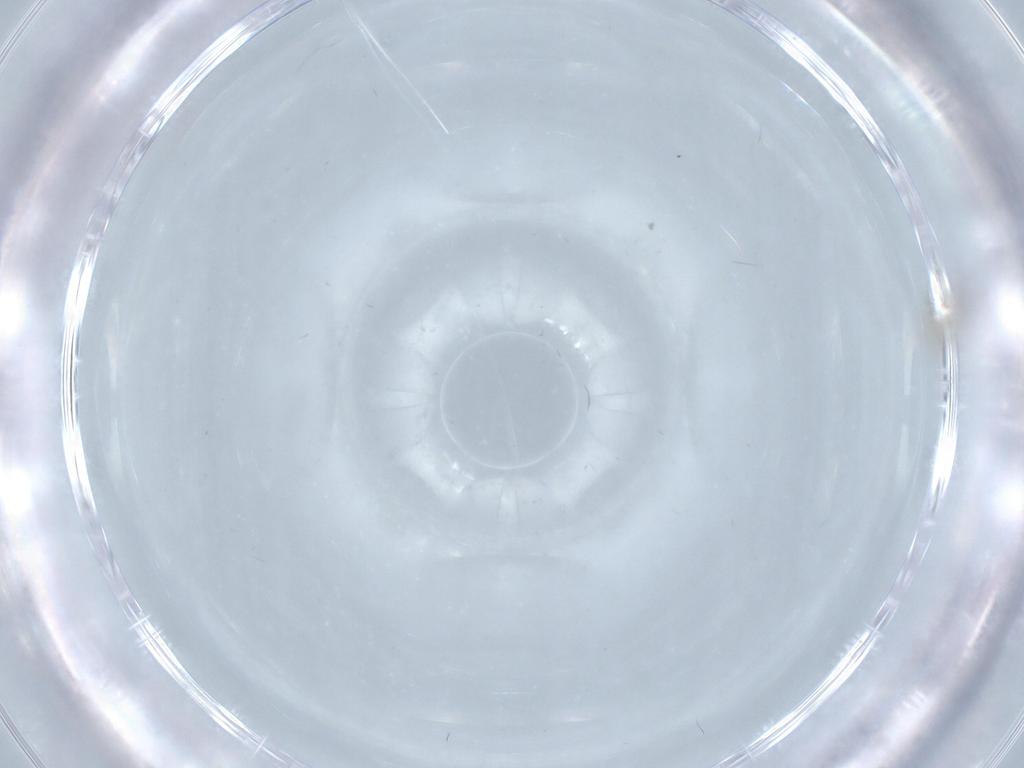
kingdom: Animalia
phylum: Arthropoda
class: Insecta
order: Diptera
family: Cecidomyiidae
